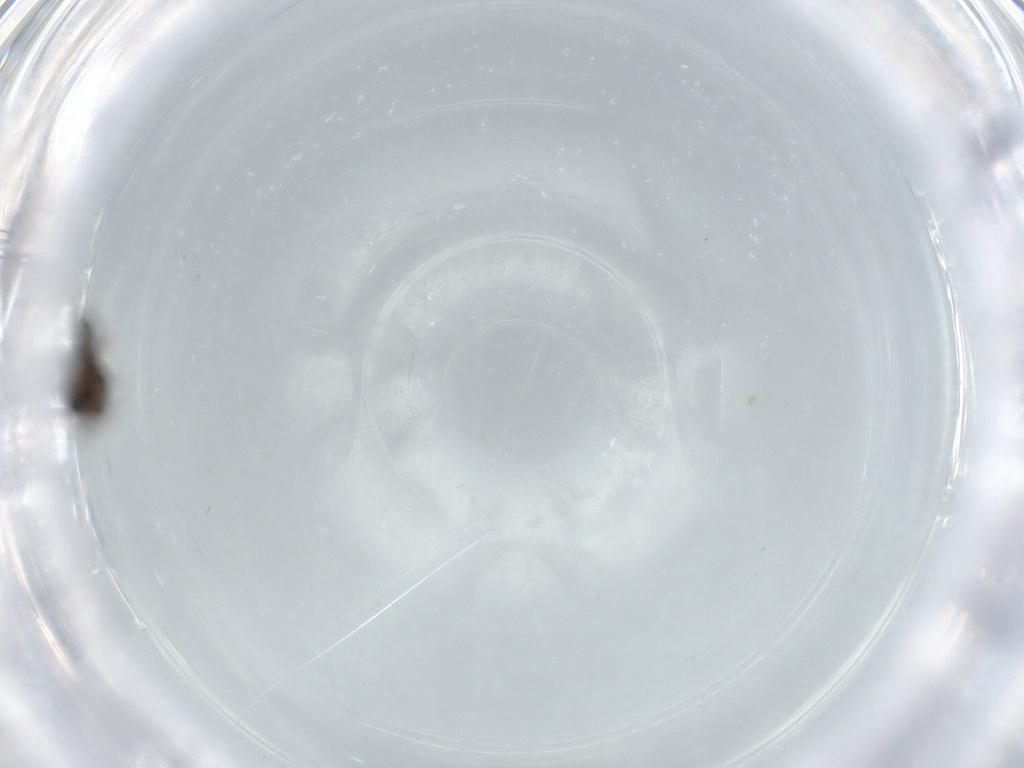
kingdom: Animalia
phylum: Arthropoda
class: Insecta
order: Hemiptera
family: Schizopteridae
